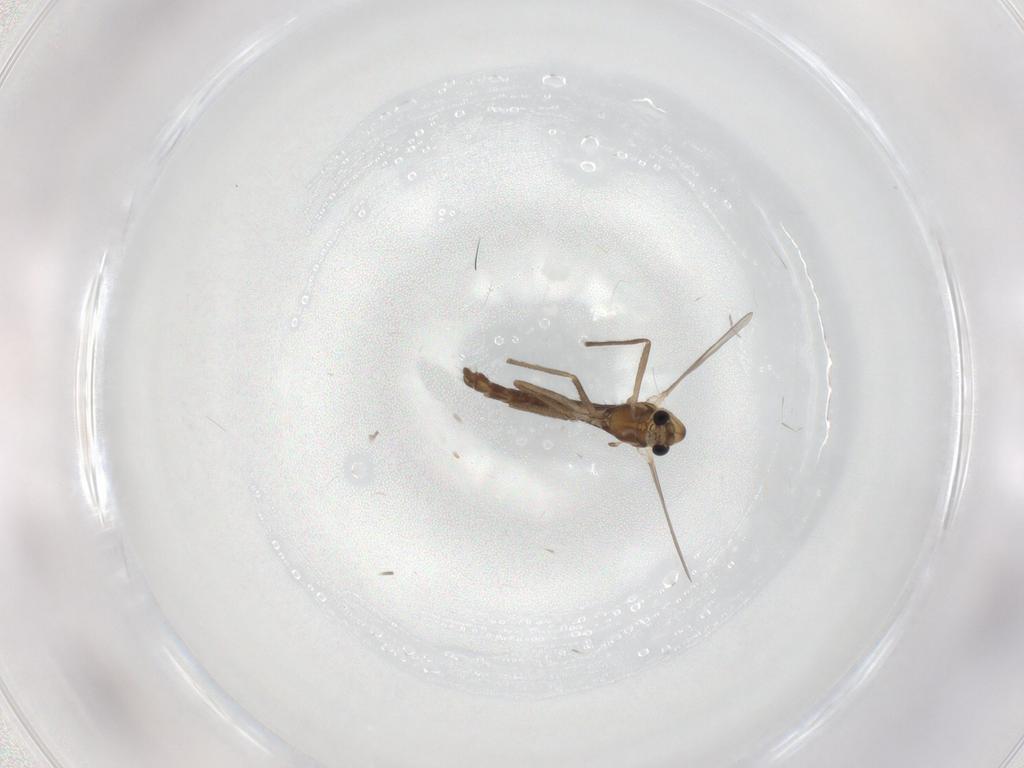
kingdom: Animalia
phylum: Arthropoda
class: Insecta
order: Diptera
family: Chironomidae
